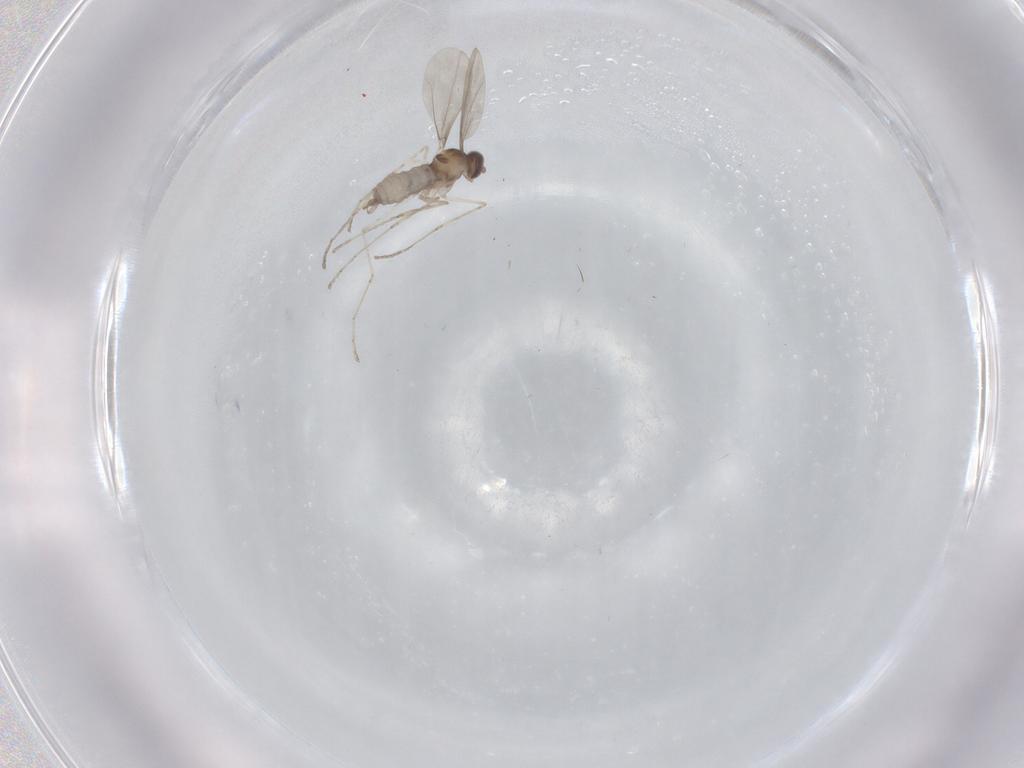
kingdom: Animalia
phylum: Arthropoda
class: Insecta
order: Diptera
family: Cecidomyiidae
